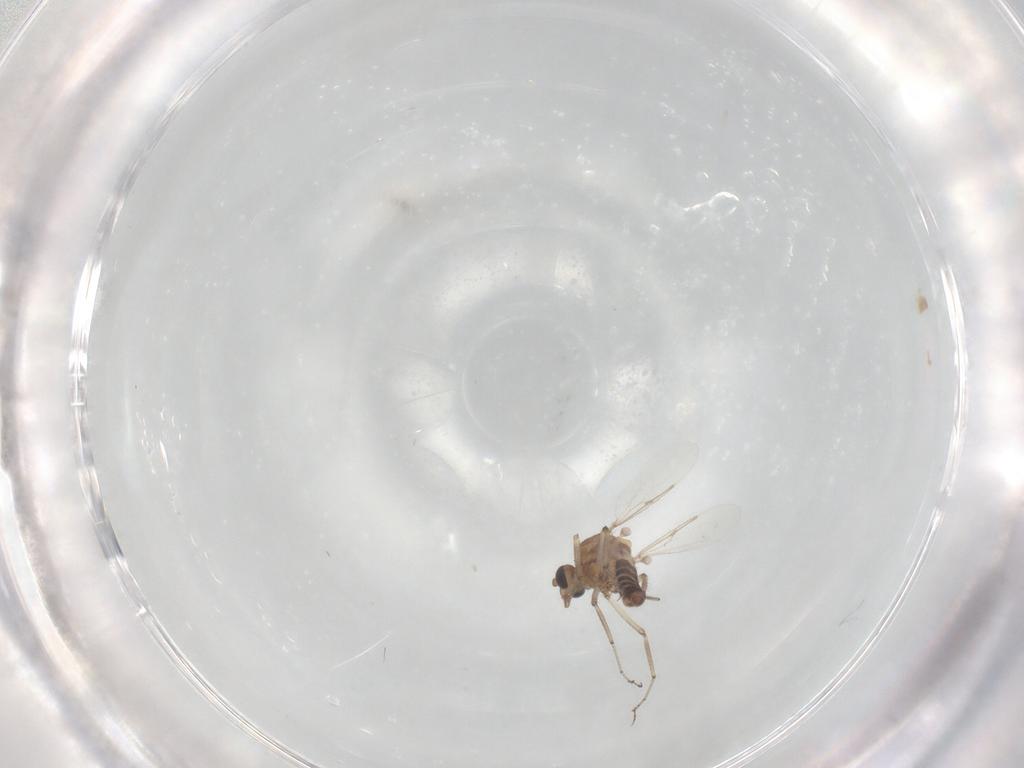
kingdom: Animalia
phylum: Arthropoda
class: Insecta
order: Diptera
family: Ceratopogonidae
